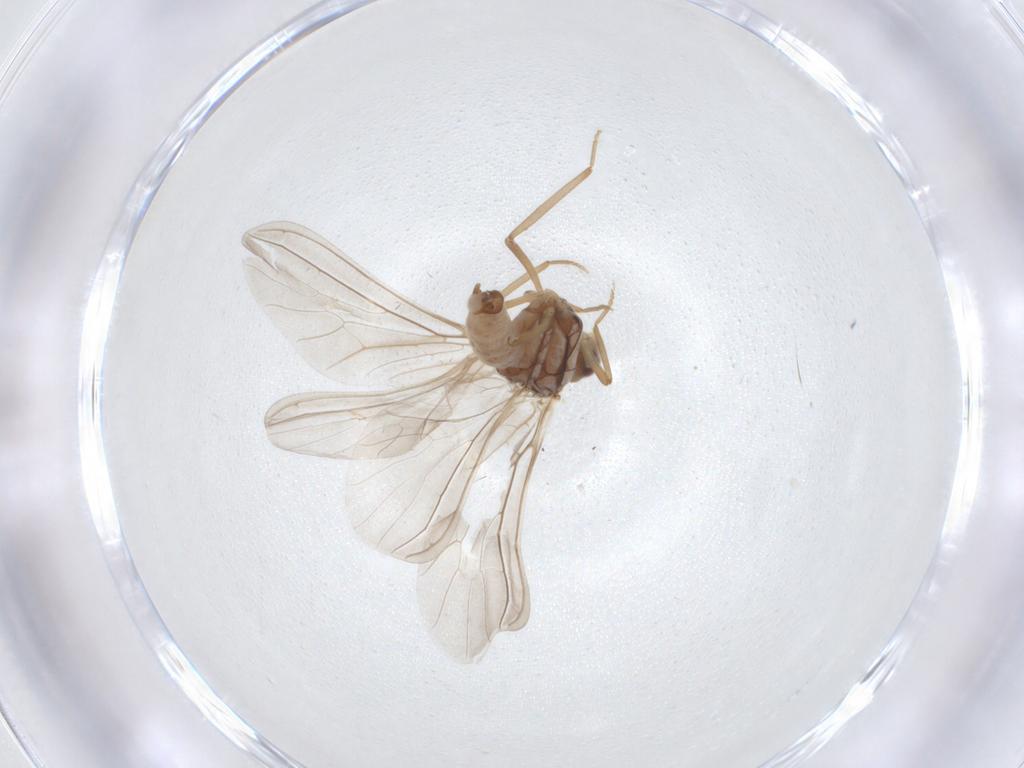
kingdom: Animalia
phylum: Arthropoda
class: Insecta
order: Neuroptera
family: Coniopterygidae
